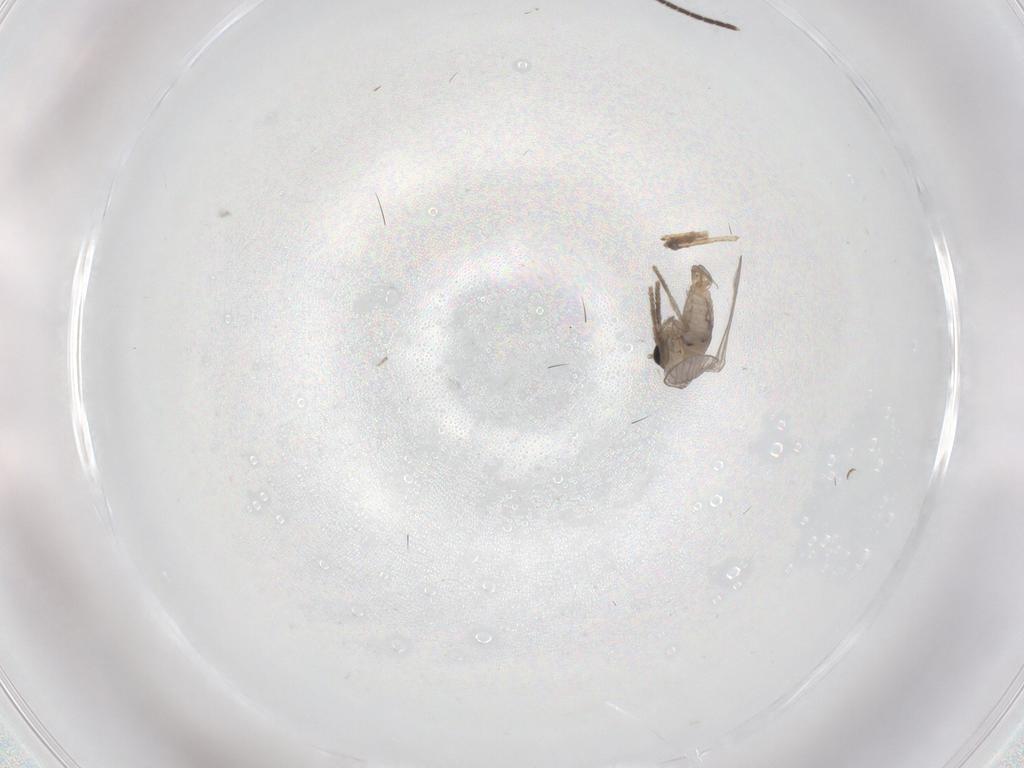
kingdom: Animalia
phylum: Arthropoda
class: Insecta
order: Diptera
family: Psychodidae
